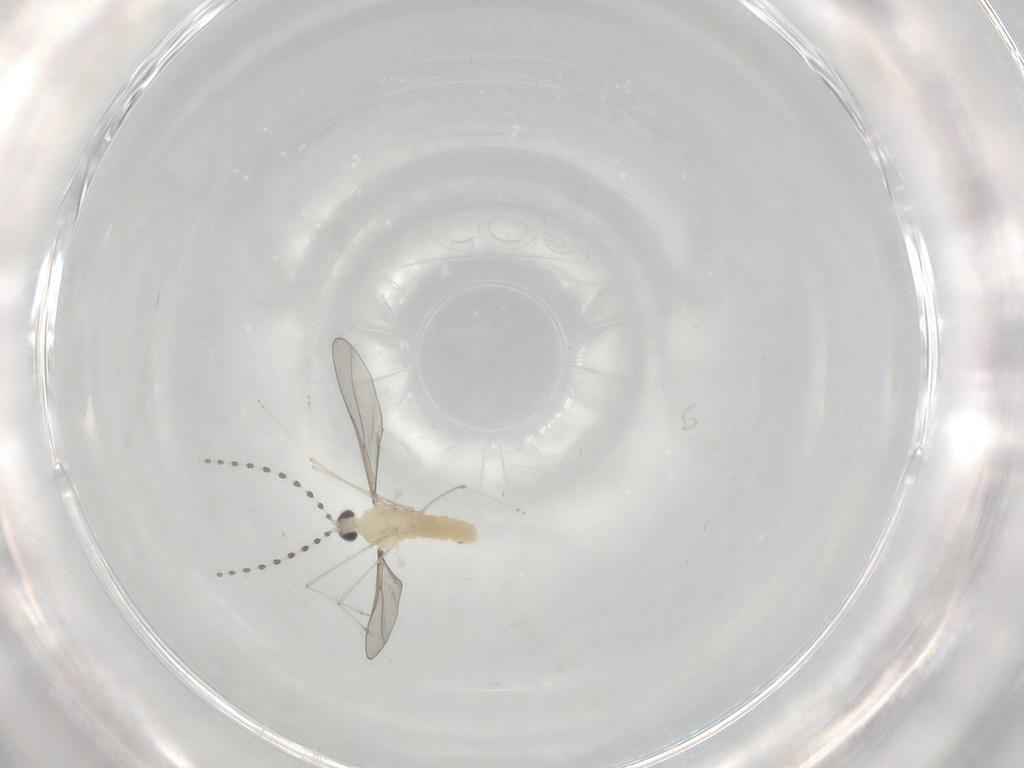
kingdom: Animalia
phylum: Arthropoda
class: Insecta
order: Diptera
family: Cecidomyiidae
